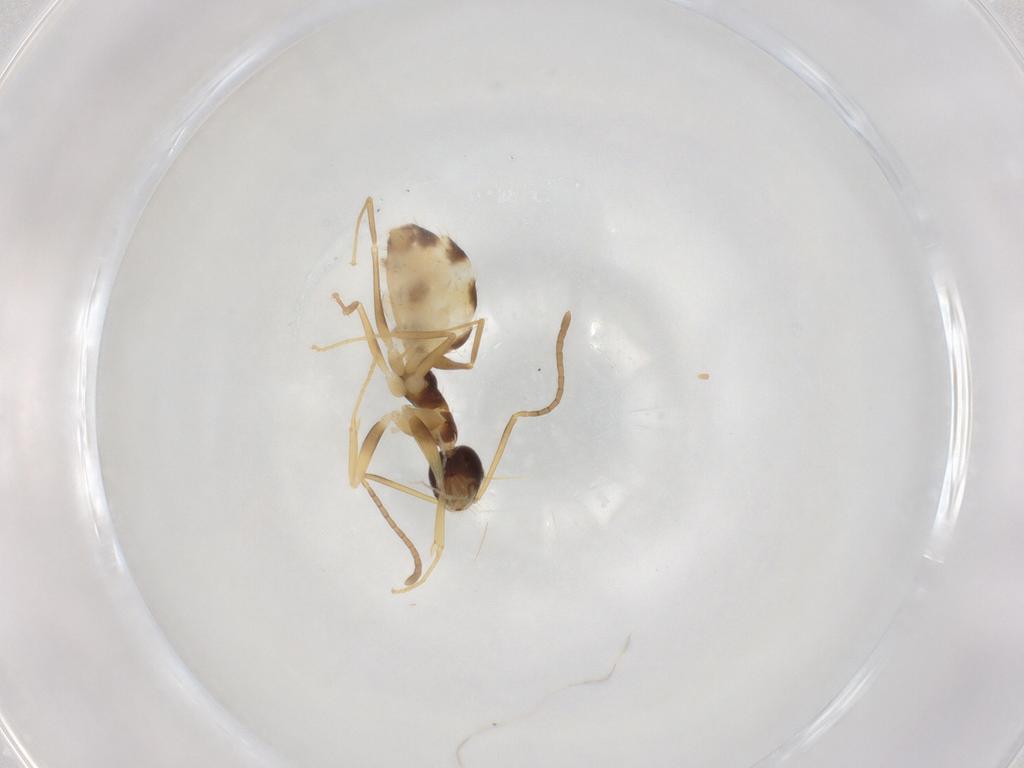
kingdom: Animalia
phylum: Arthropoda
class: Insecta
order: Hymenoptera
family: Formicidae
